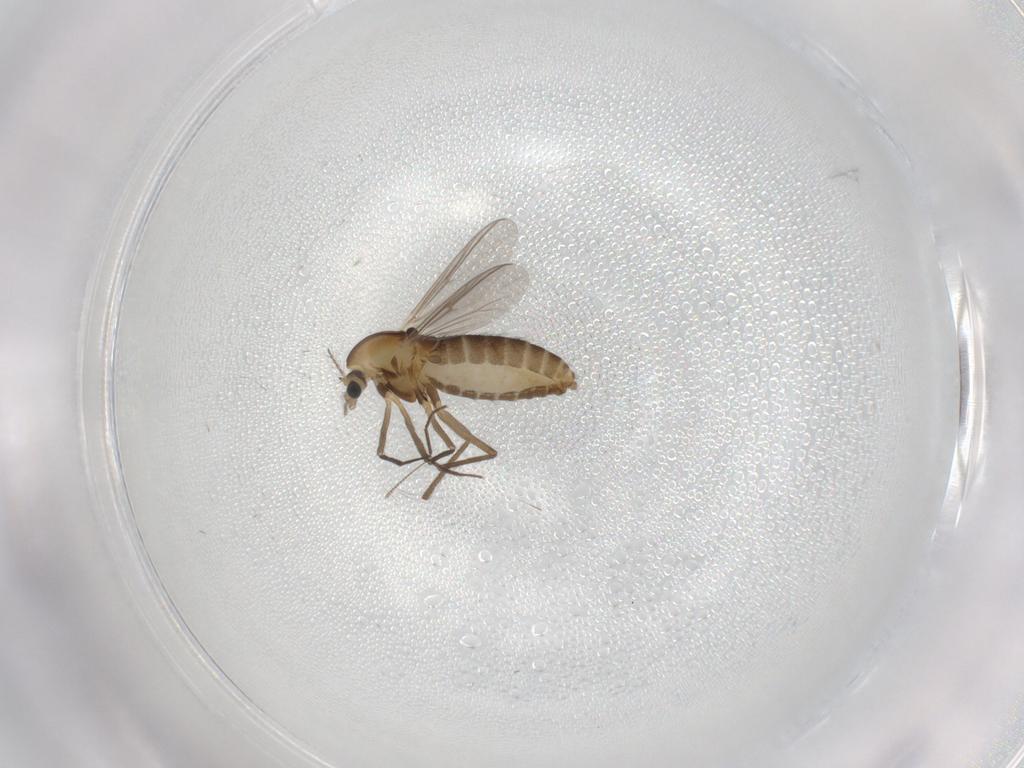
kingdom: Animalia
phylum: Arthropoda
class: Insecta
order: Diptera
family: Chironomidae
